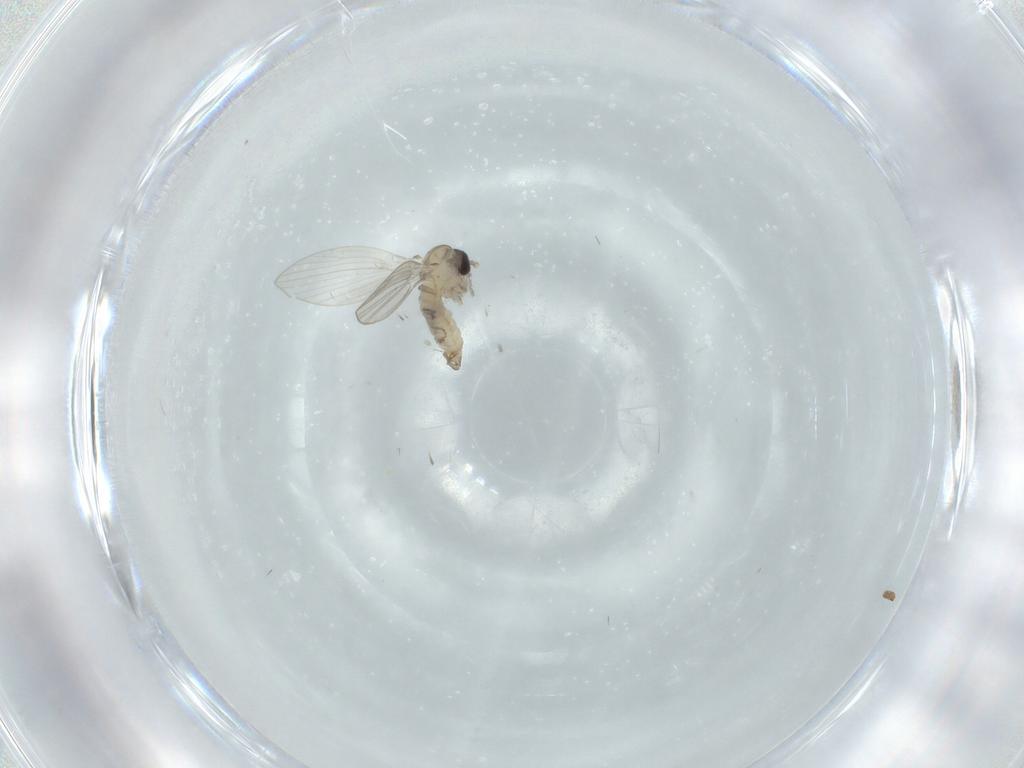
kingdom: Animalia
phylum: Arthropoda
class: Insecta
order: Diptera
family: Psychodidae
